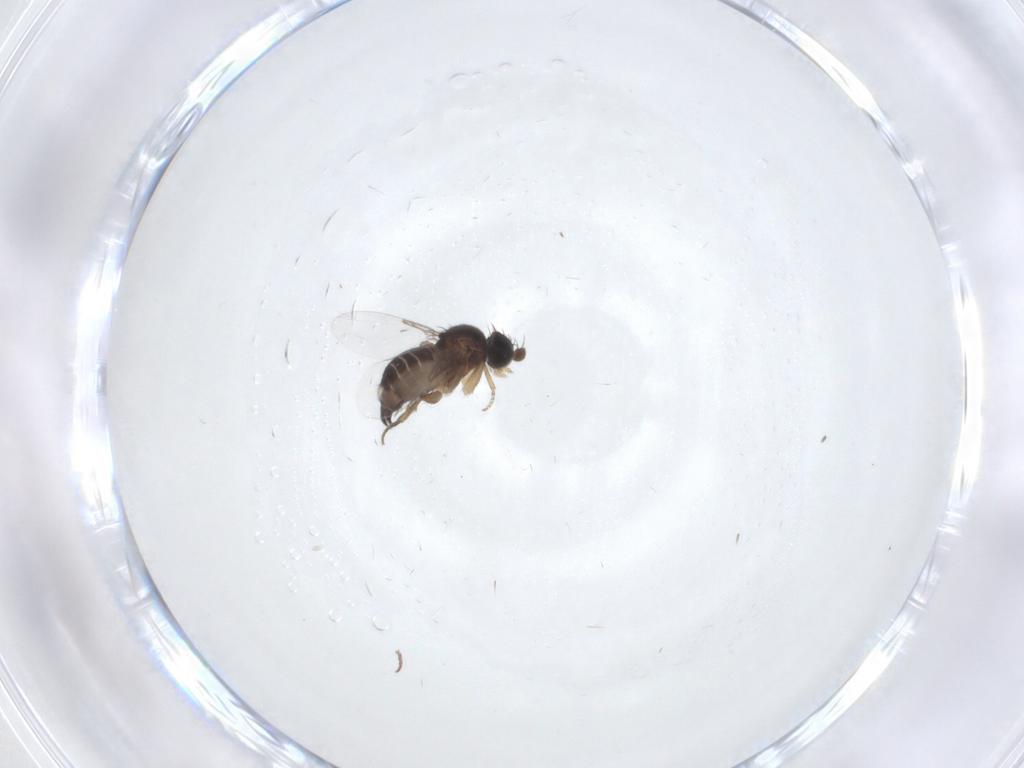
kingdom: Animalia
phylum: Arthropoda
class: Insecta
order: Diptera
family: Phoridae
